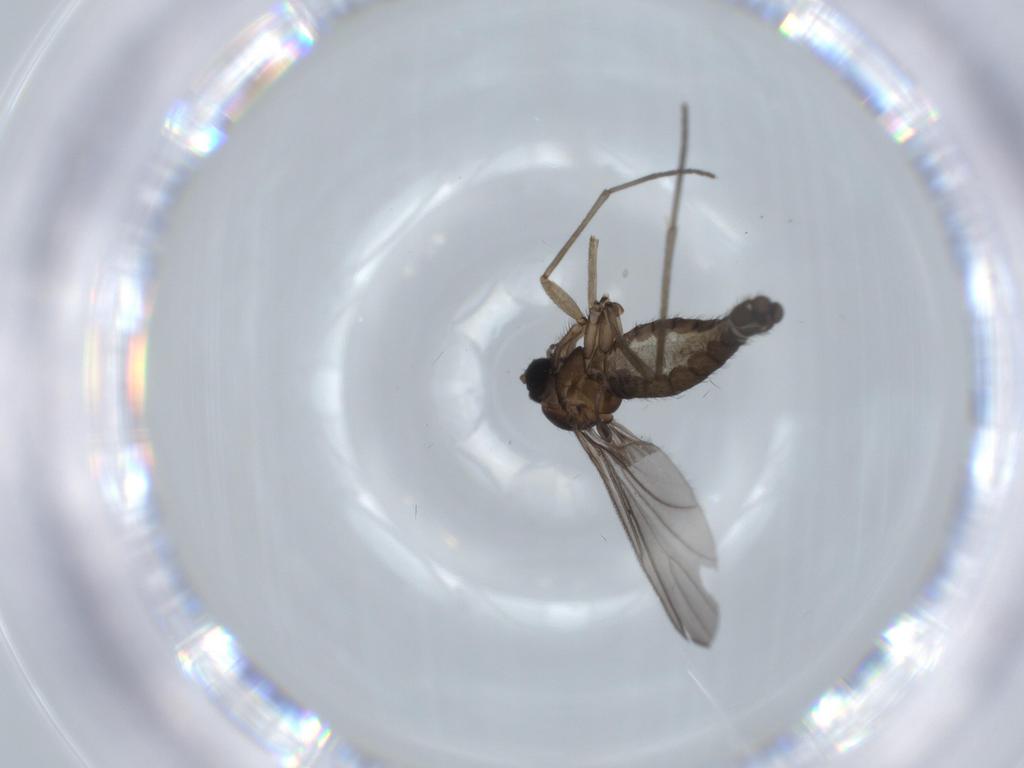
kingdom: Animalia
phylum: Arthropoda
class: Insecta
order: Diptera
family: Sciaridae
